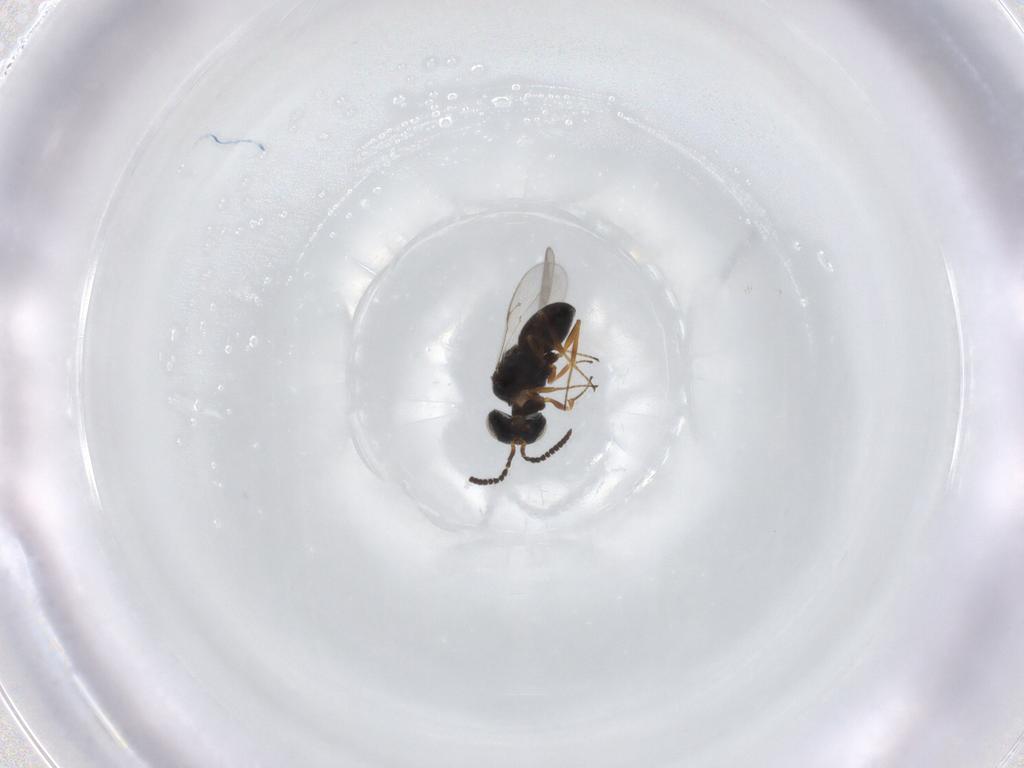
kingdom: Animalia
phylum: Arthropoda
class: Insecta
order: Hymenoptera
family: Scelionidae
